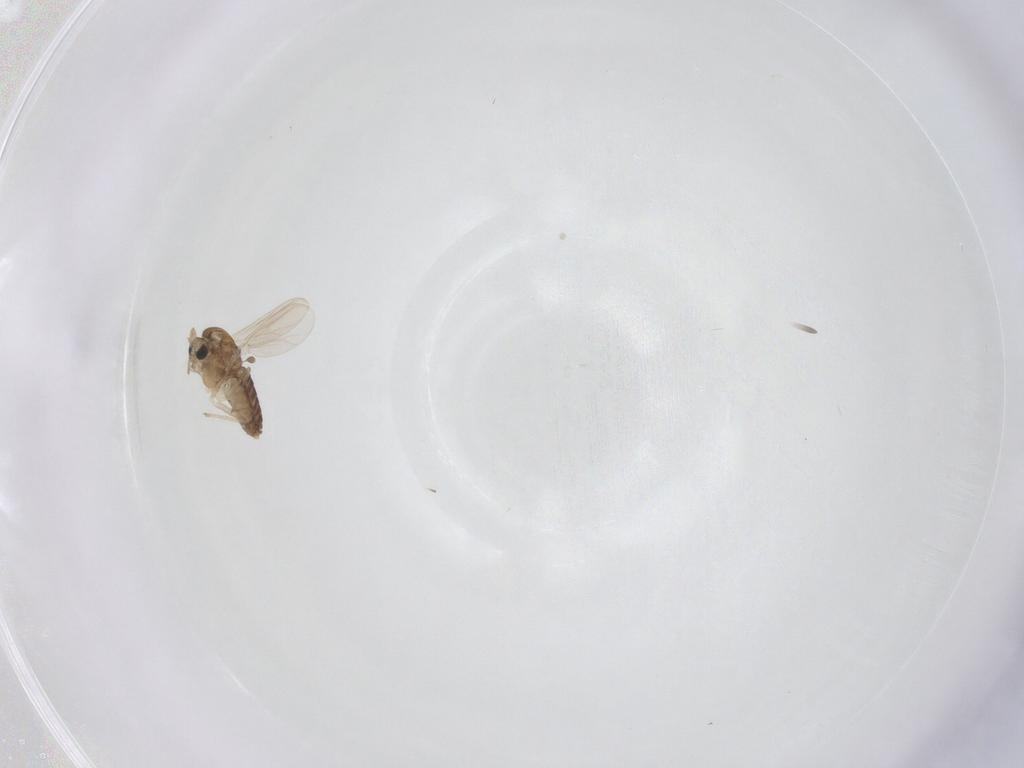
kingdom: Animalia
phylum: Arthropoda
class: Insecta
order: Diptera
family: Chironomidae
